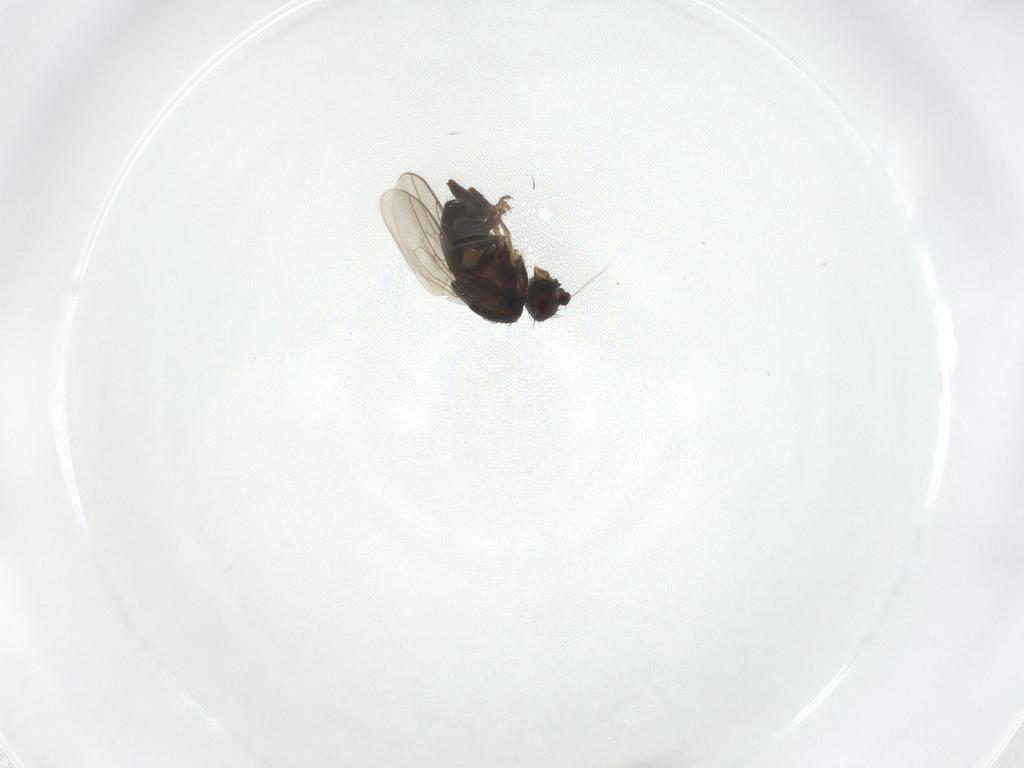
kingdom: Animalia
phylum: Arthropoda
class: Insecta
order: Diptera
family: Sphaeroceridae
